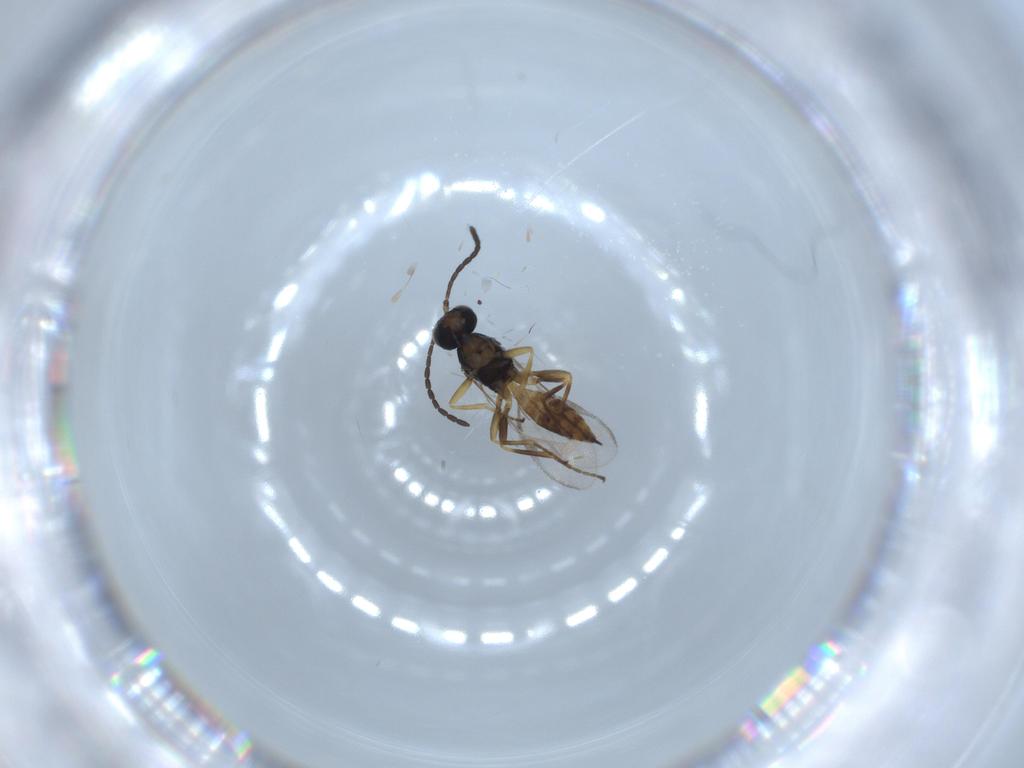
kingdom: Animalia
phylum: Arthropoda
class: Insecta
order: Hymenoptera
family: Braconidae
